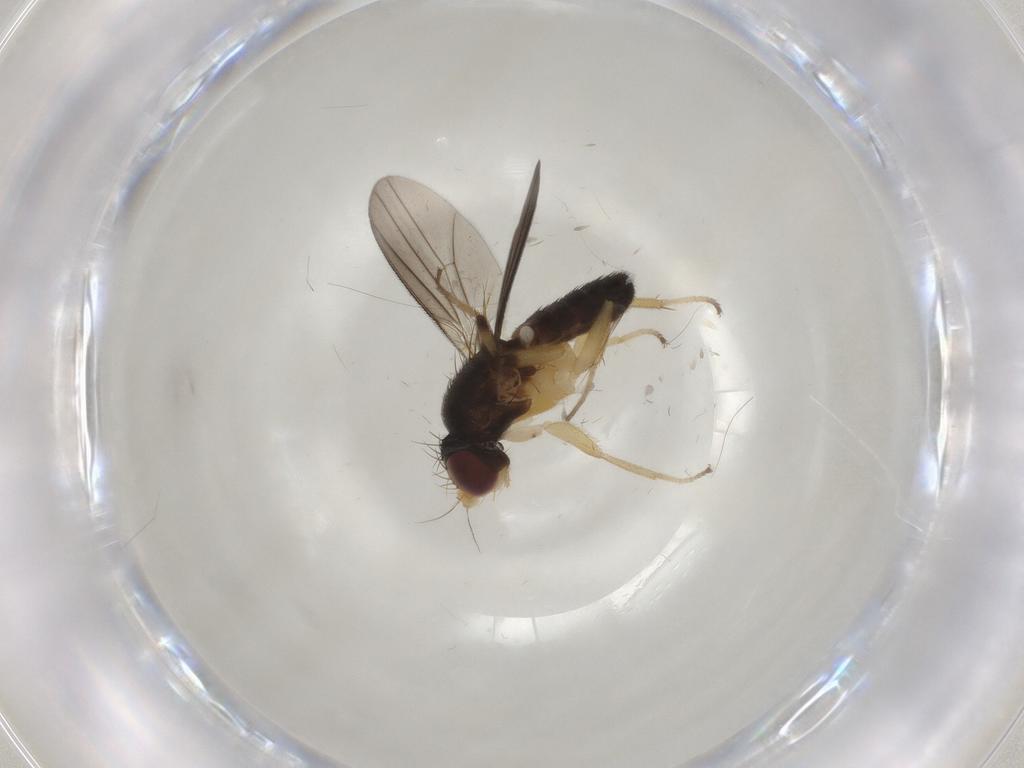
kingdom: Animalia
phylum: Arthropoda
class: Insecta
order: Diptera
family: Clusiidae
